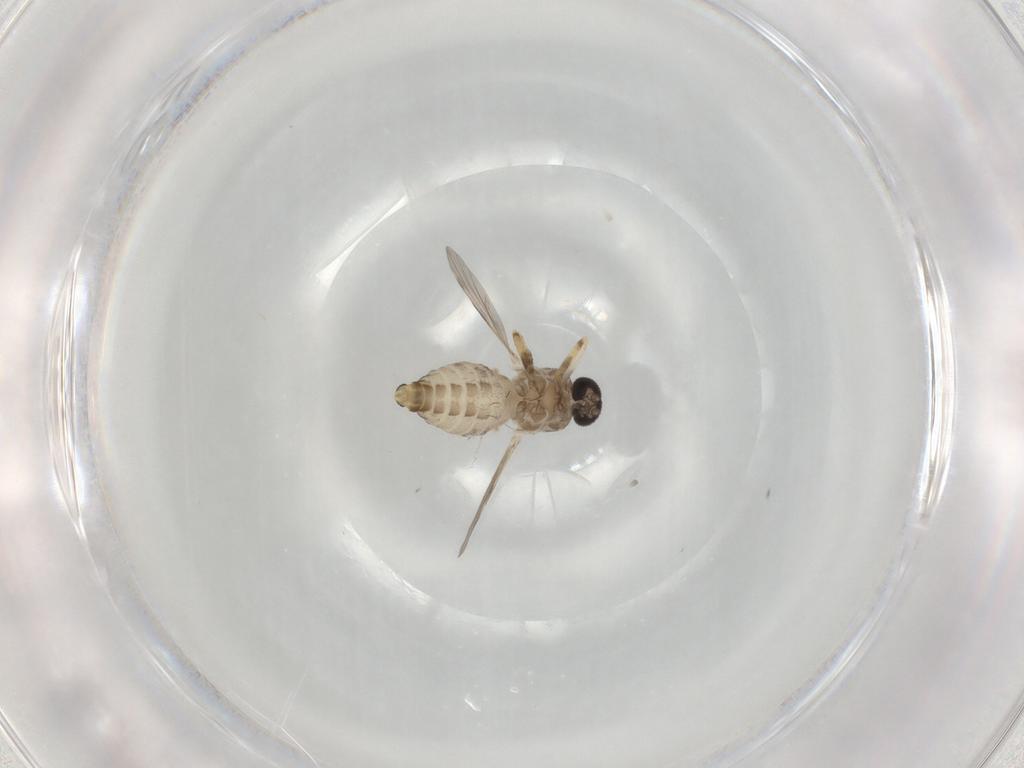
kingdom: Animalia
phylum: Arthropoda
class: Insecta
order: Diptera
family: Ceratopogonidae
